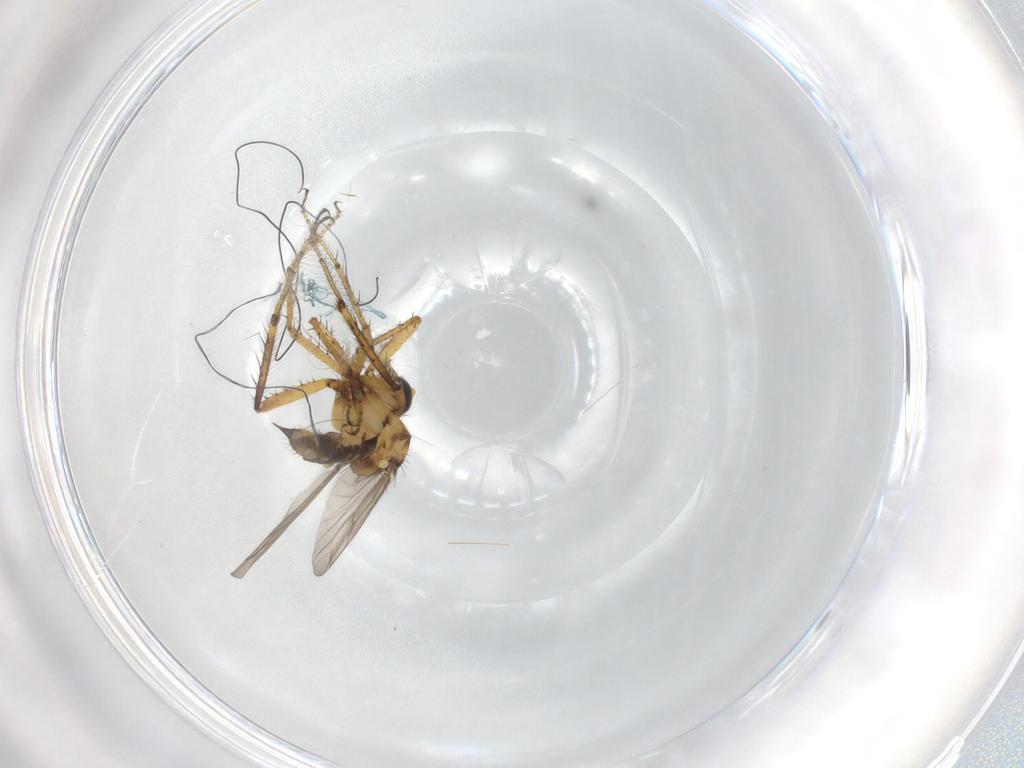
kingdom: Animalia
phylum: Arthropoda
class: Insecta
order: Diptera
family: Ceratopogonidae
